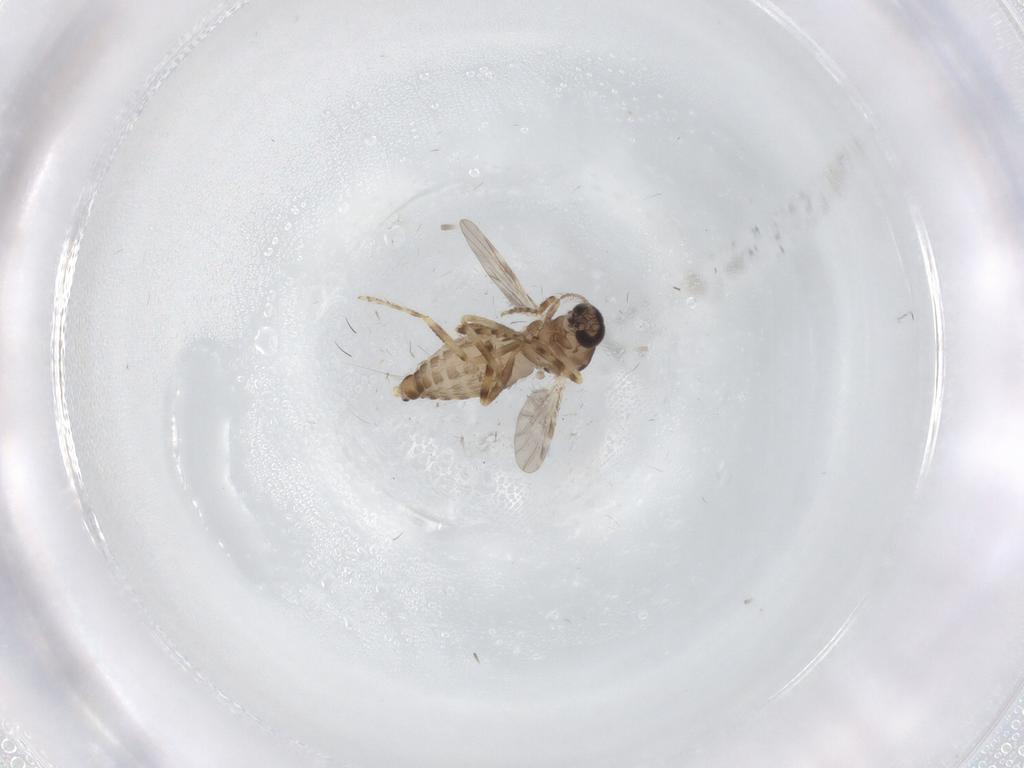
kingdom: Animalia
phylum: Arthropoda
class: Insecta
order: Diptera
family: Ceratopogonidae
